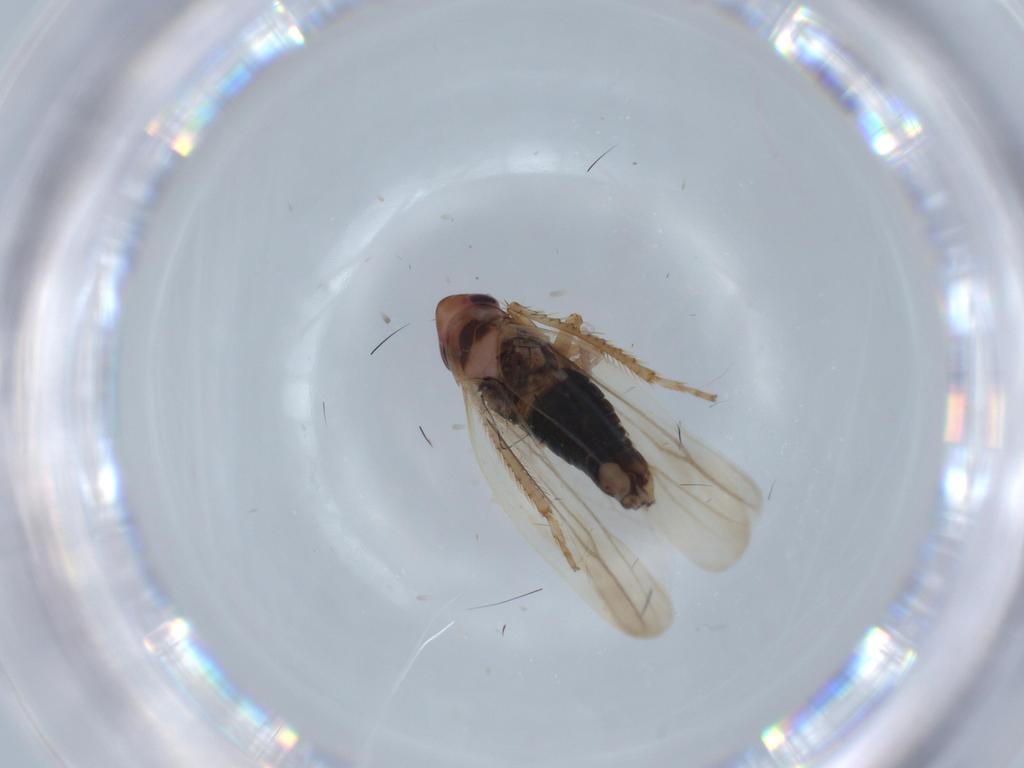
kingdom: Animalia
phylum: Arthropoda
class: Insecta
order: Hemiptera
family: Cicadellidae
